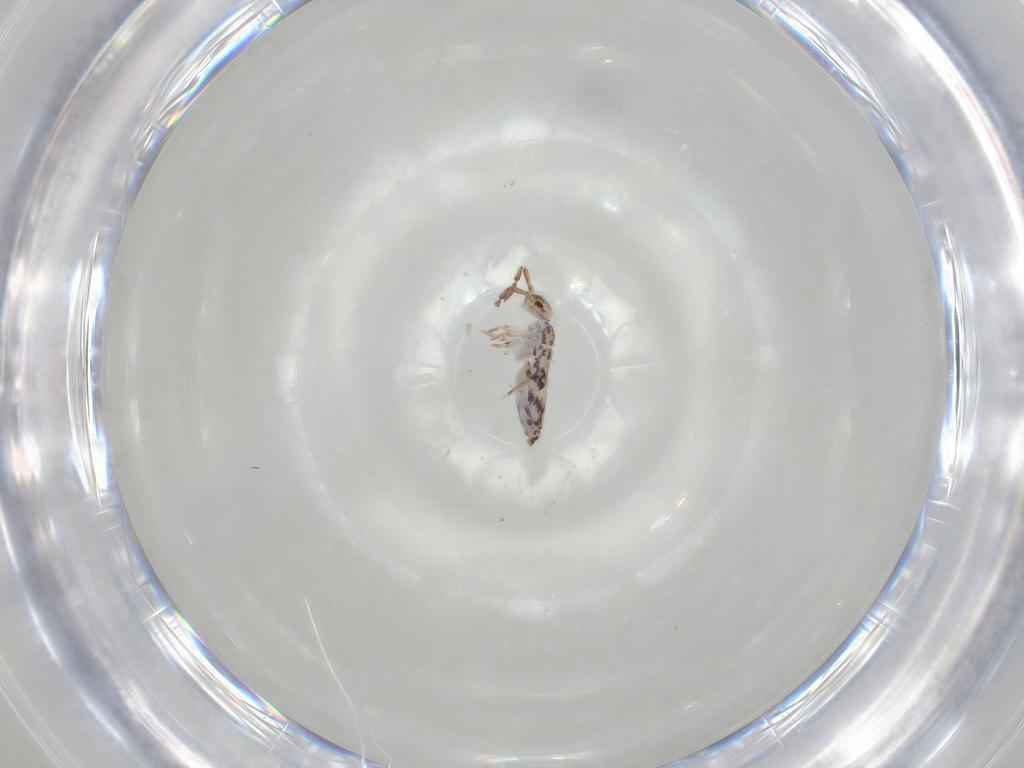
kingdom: Animalia
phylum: Arthropoda
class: Collembola
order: Entomobryomorpha
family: Entomobryidae
